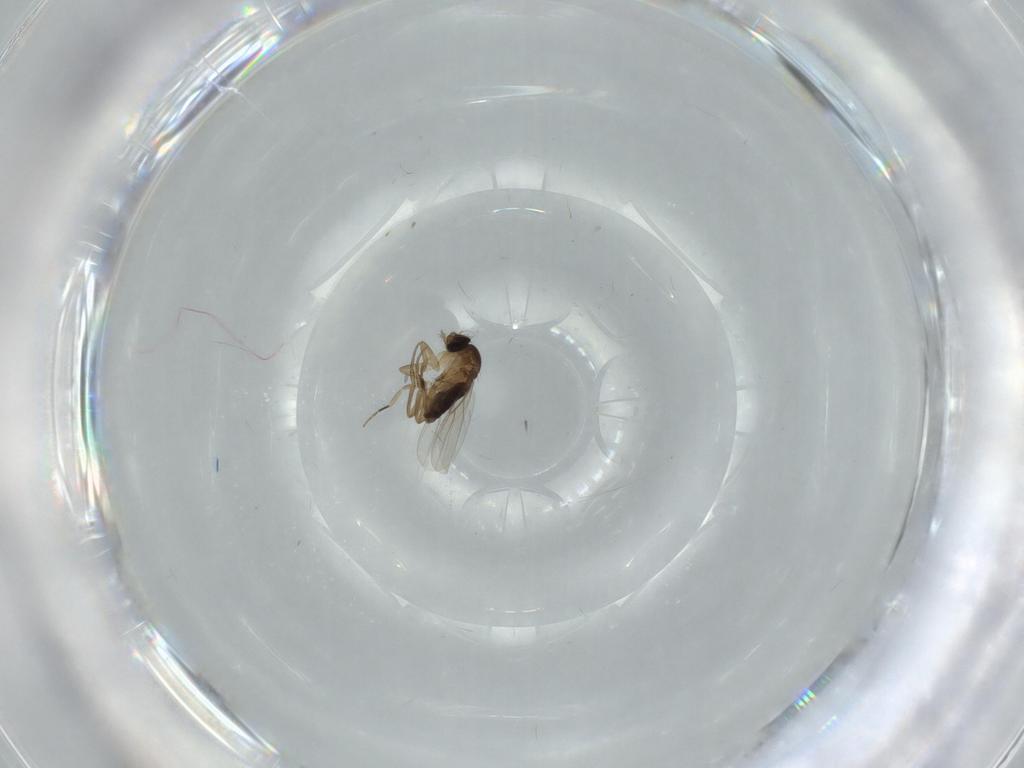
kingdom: Animalia
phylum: Arthropoda
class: Insecta
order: Diptera
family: Phoridae
